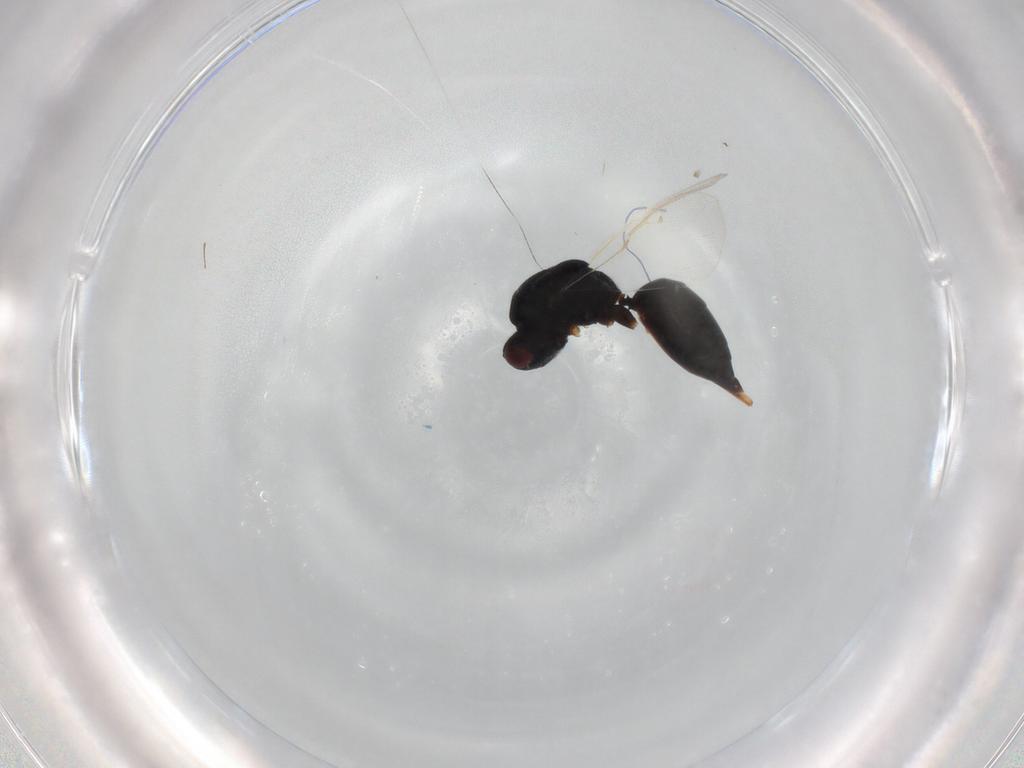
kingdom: Animalia
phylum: Arthropoda
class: Insecta
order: Hymenoptera
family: Eurytomidae
